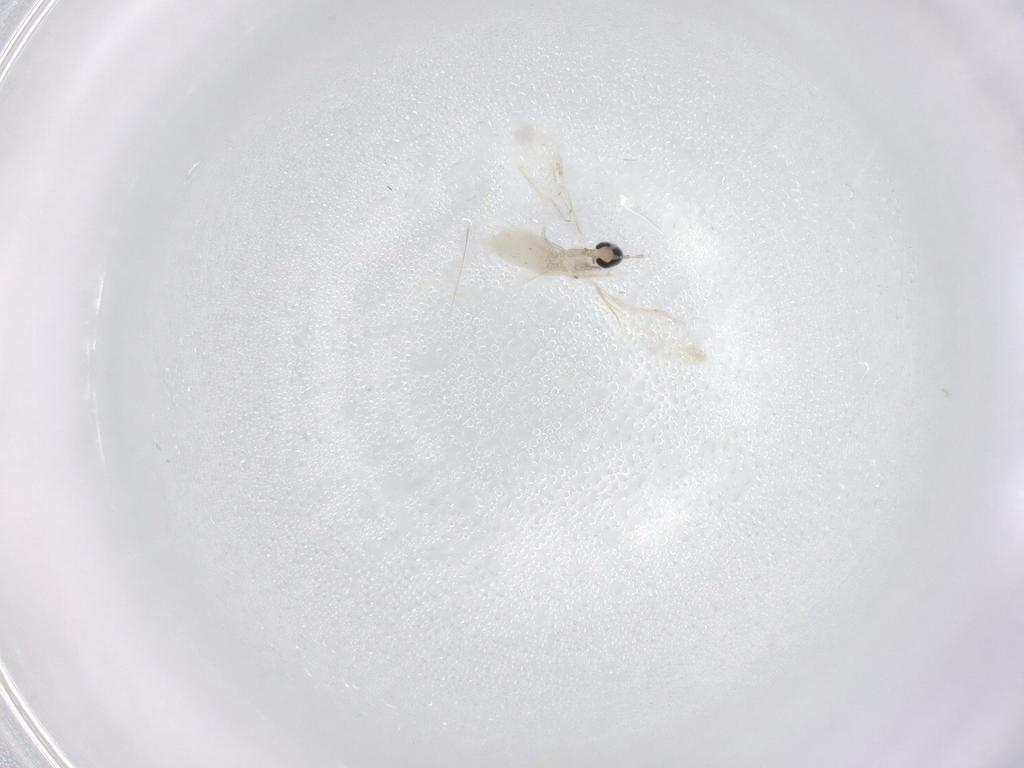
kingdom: Animalia
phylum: Arthropoda
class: Insecta
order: Diptera
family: Cecidomyiidae
